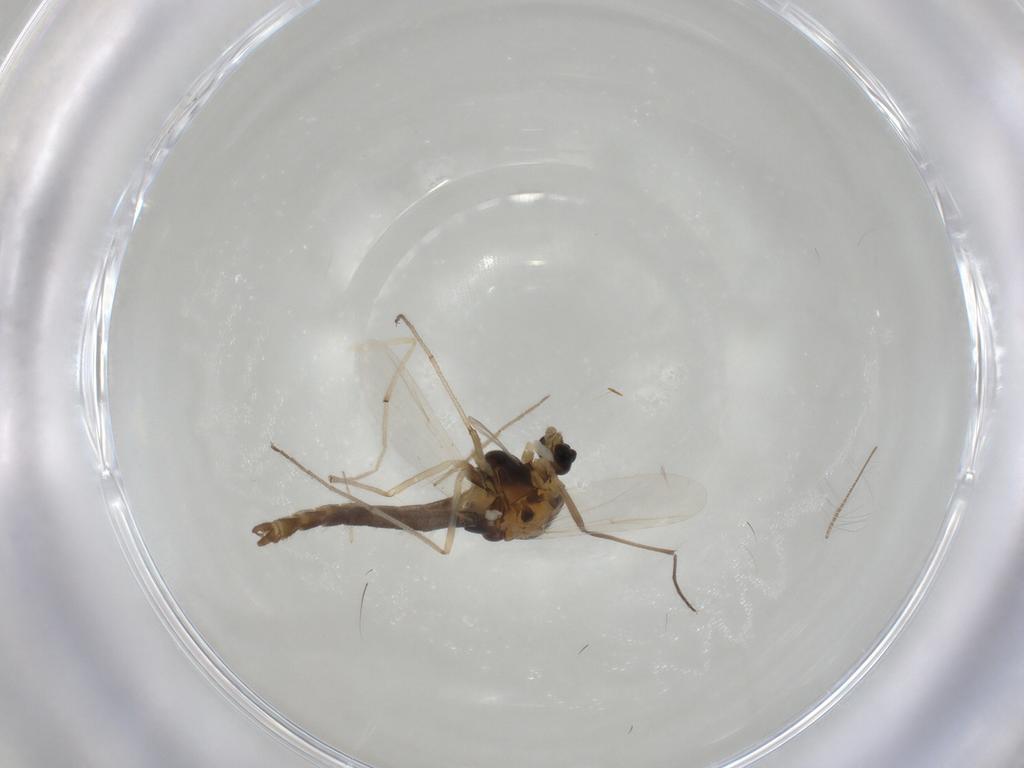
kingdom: Animalia
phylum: Arthropoda
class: Insecta
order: Diptera
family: Chironomidae
